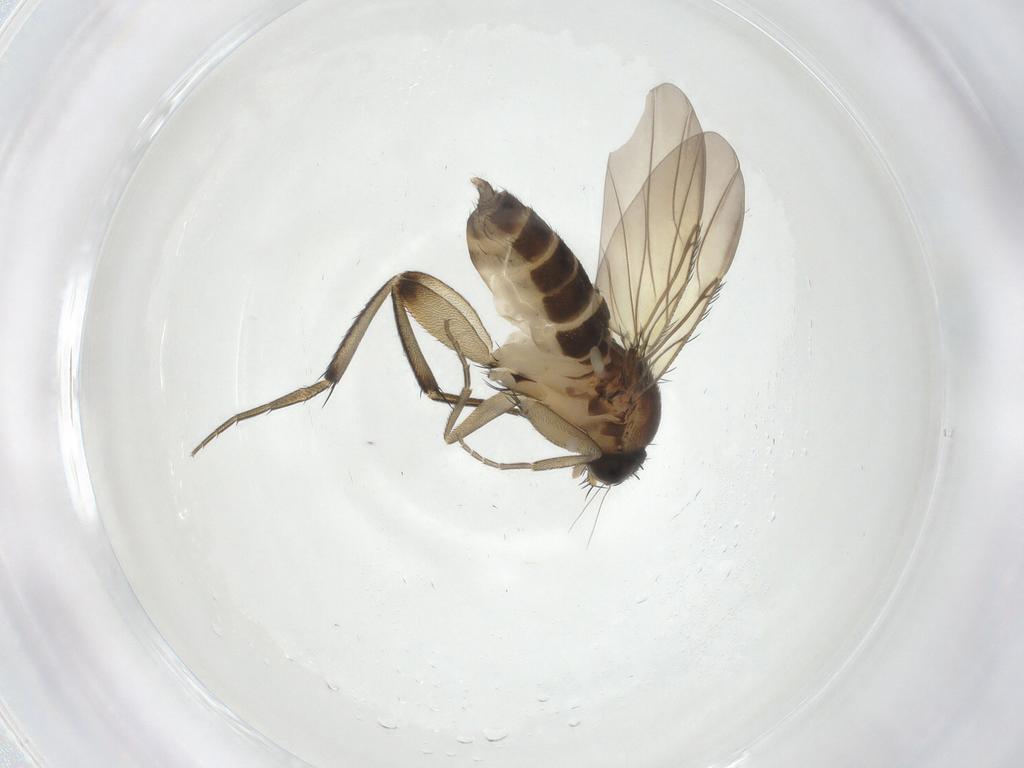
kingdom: Animalia
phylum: Arthropoda
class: Insecta
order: Diptera
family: Phoridae
